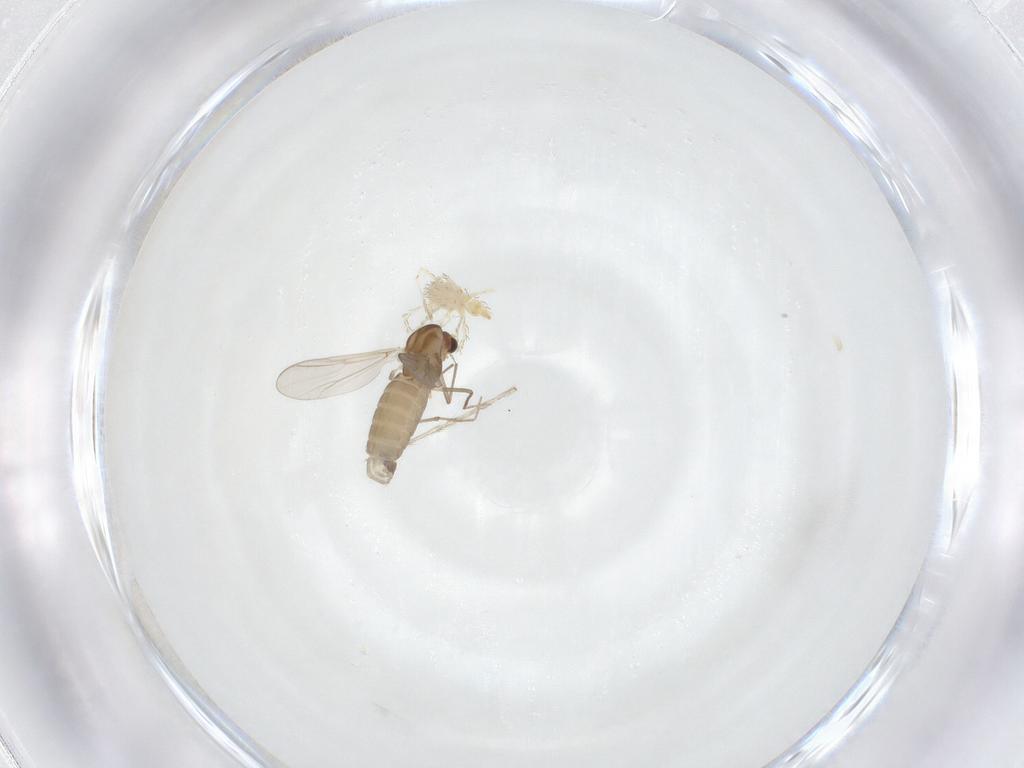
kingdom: Animalia
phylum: Arthropoda
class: Insecta
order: Diptera
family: Chironomidae
